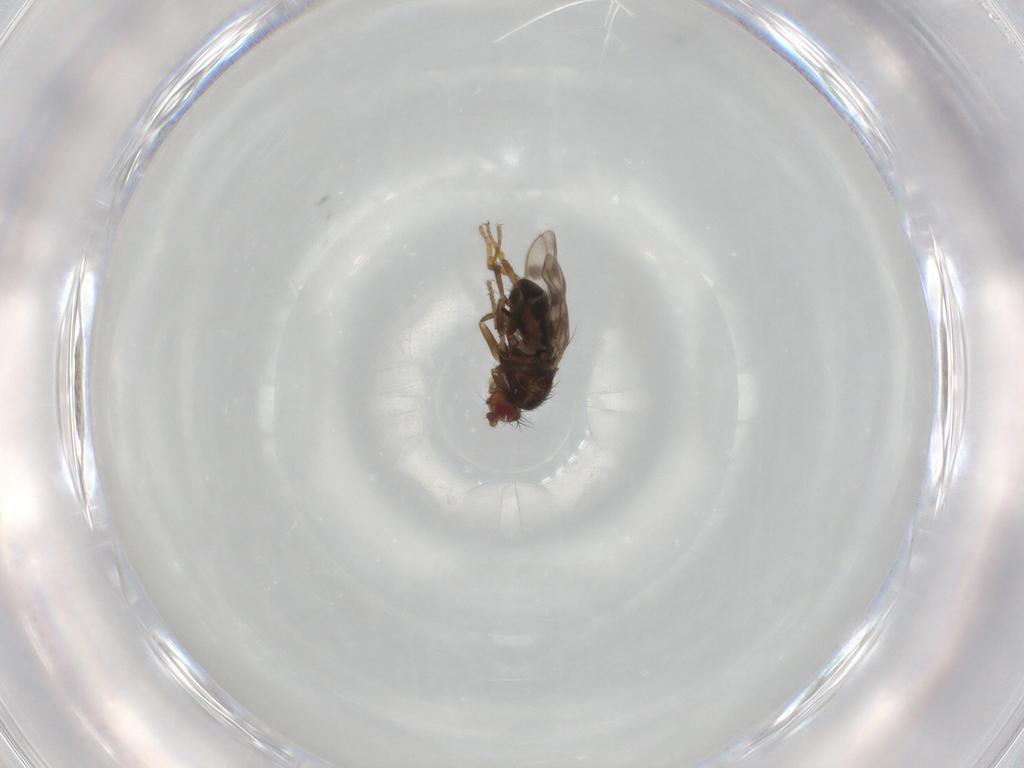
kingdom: Animalia
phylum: Arthropoda
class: Insecta
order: Diptera
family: Sphaeroceridae
